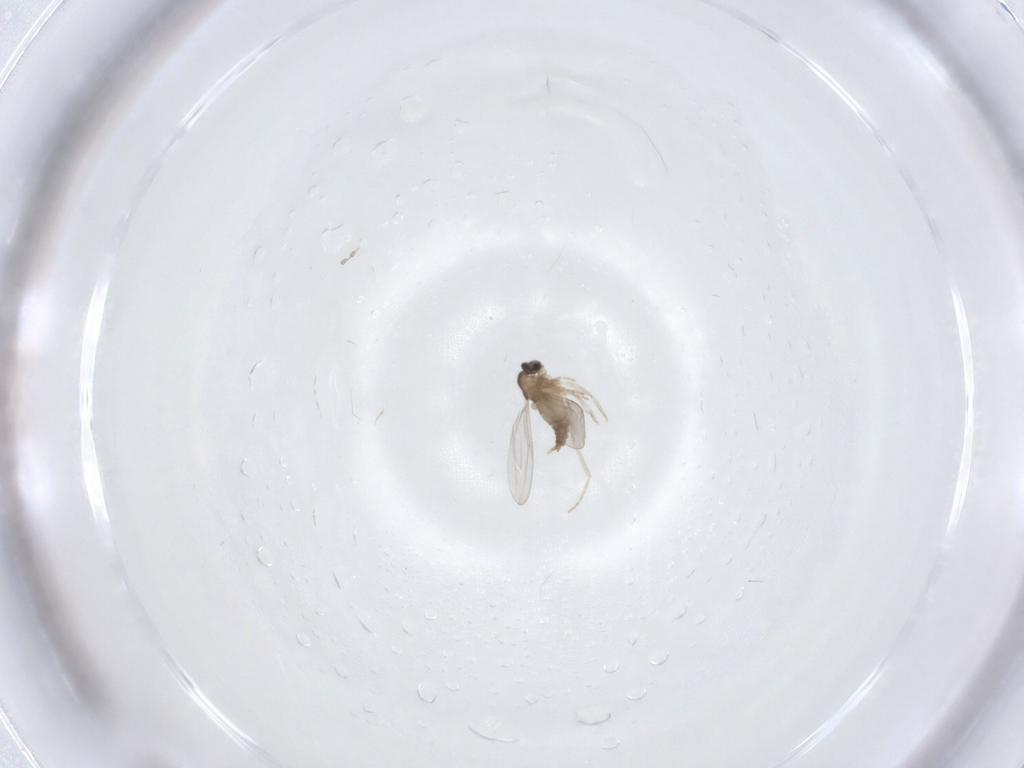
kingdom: Animalia
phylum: Arthropoda
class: Insecta
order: Diptera
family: Cecidomyiidae
